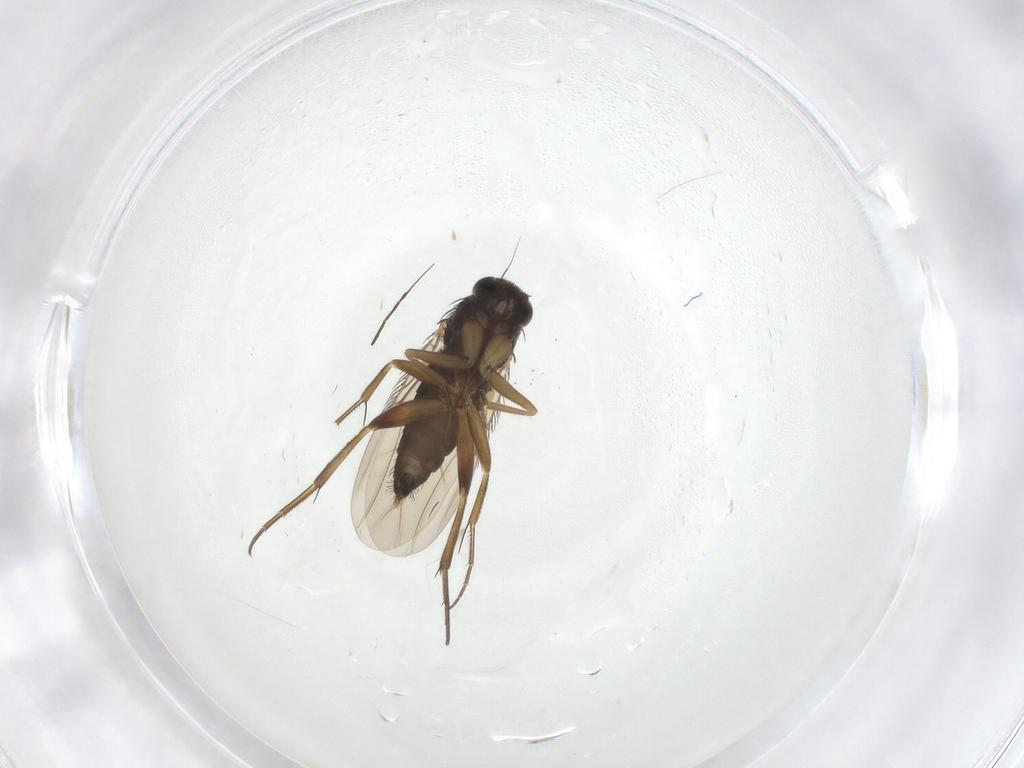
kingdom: Animalia
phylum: Arthropoda
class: Insecta
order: Diptera
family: Phoridae
